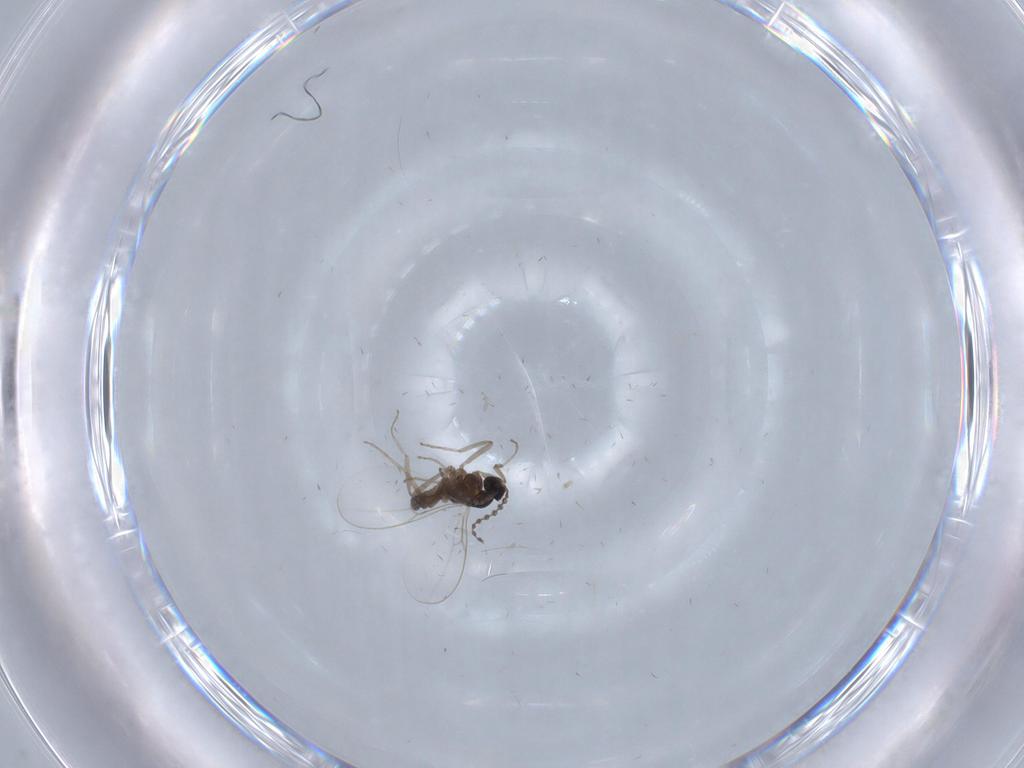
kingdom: Animalia
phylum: Arthropoda
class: Insecta
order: Diptera
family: Cecidomyiidae
